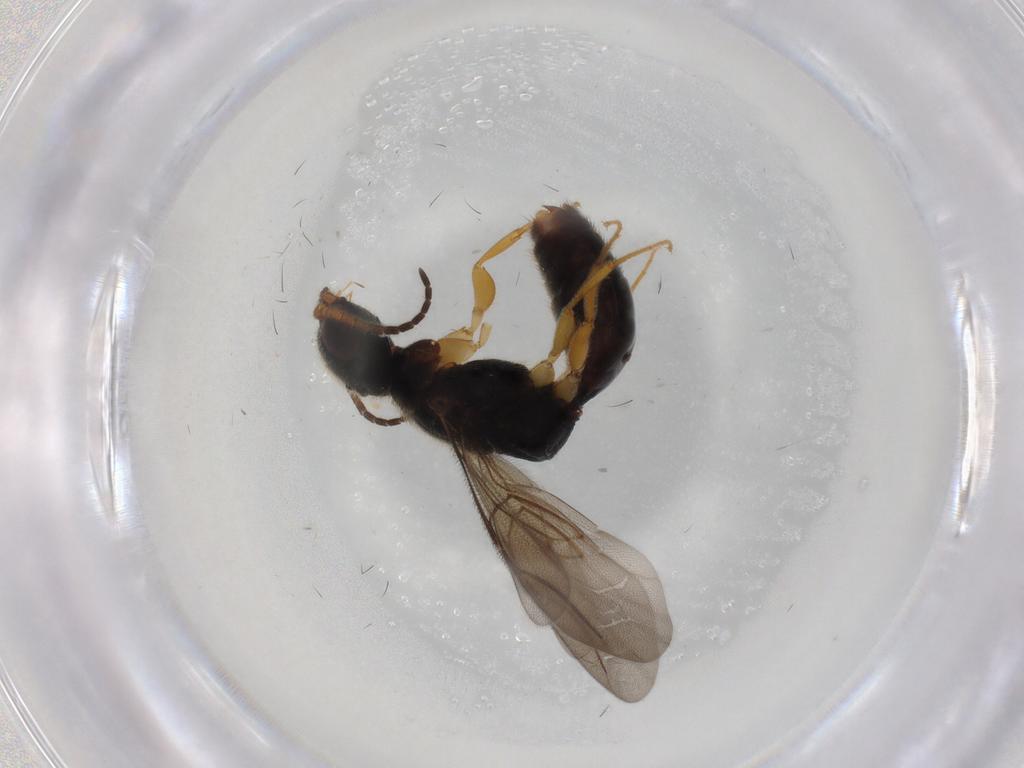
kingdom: Animalia
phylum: Arthropoda
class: Insecta
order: Hymenoptera
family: Bethylidae
